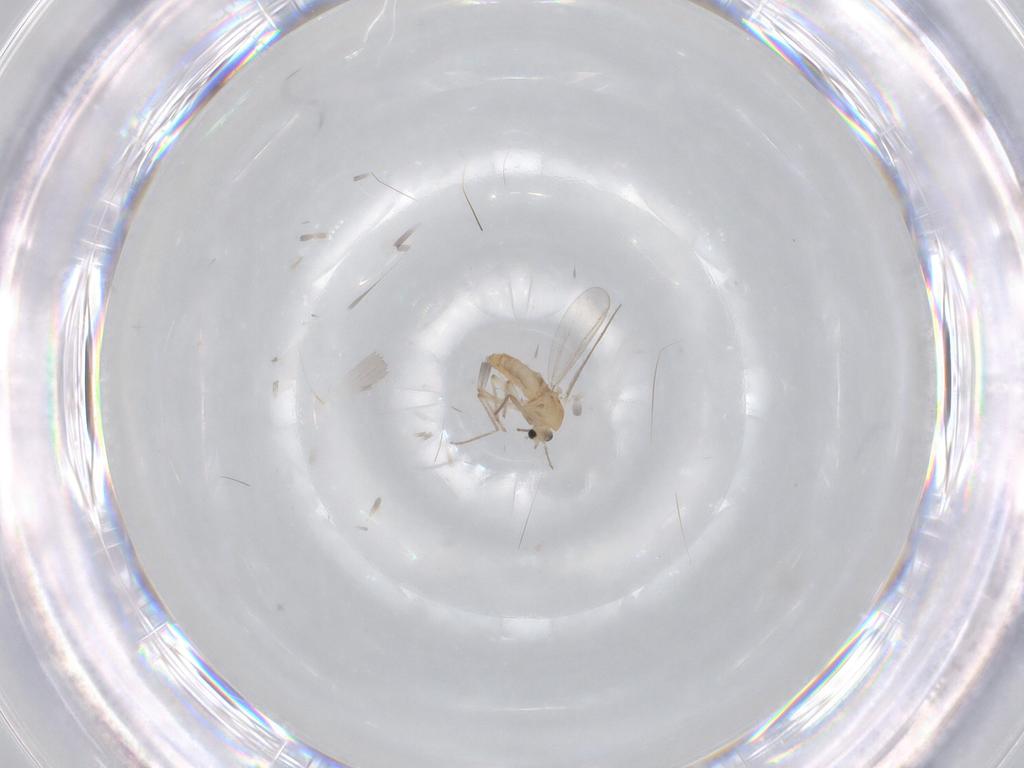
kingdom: Animalia
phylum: Arthropoda
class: Insecta
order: Diptera
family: Chironomidae
